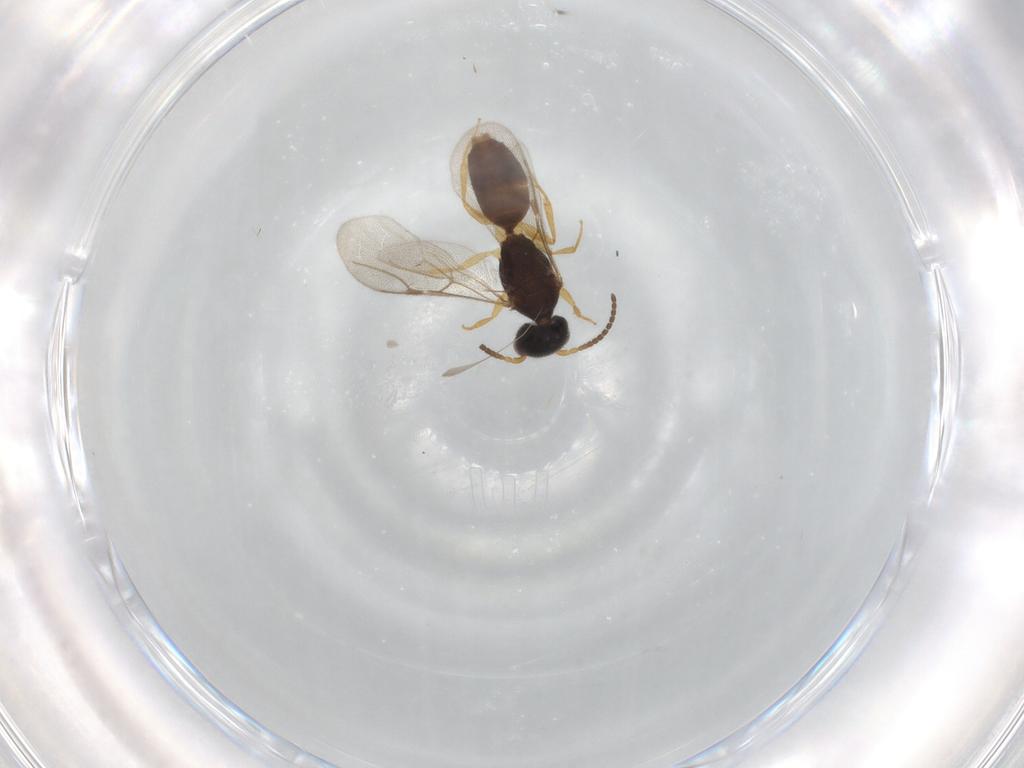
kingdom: Animalia
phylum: Arthropoda
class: Insecta
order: Hymenoptera
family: Bethylidae
